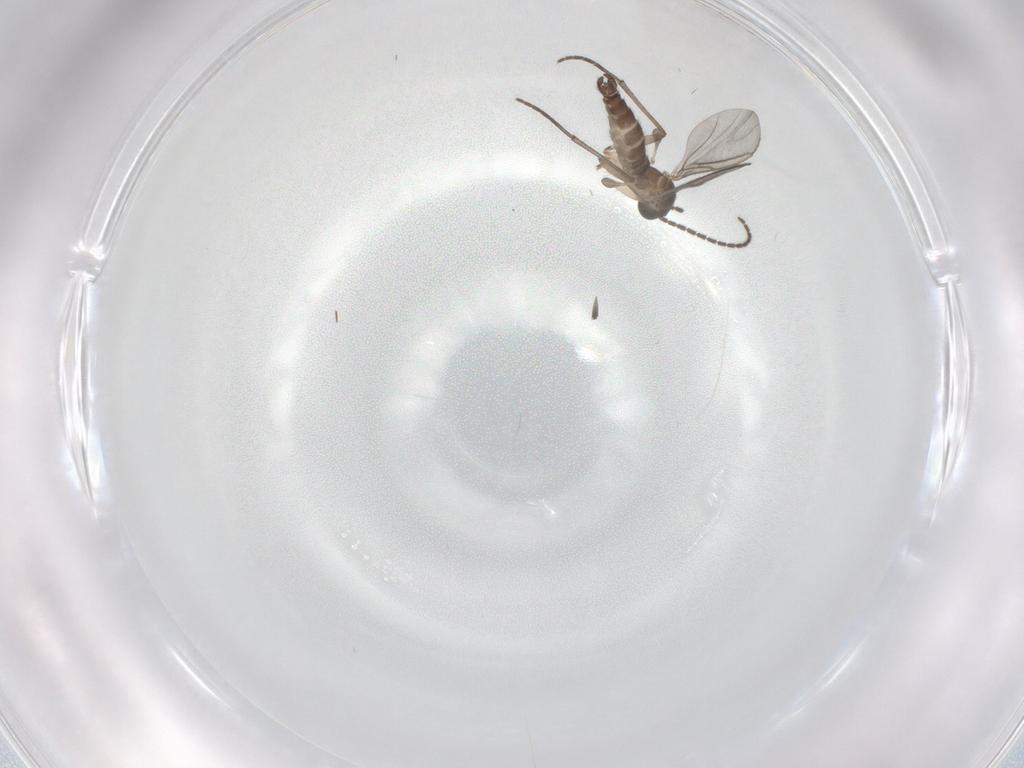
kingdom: Animalia
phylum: Arthropoda
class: Insecta
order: Diptera
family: Sciaridae
